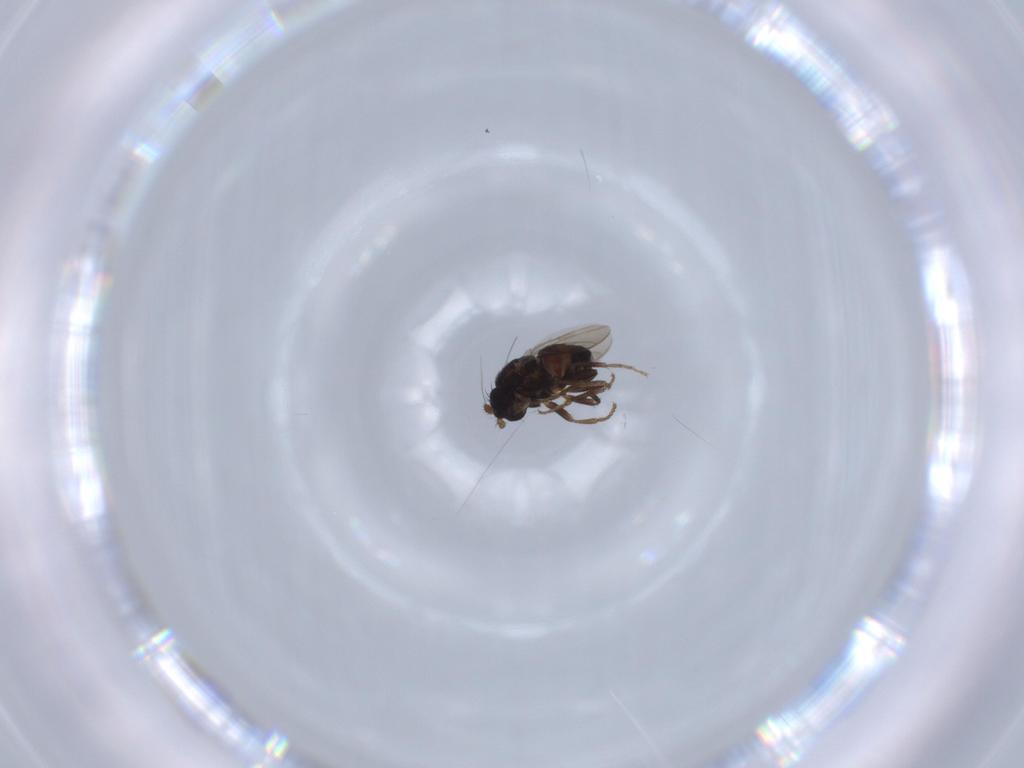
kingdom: Animalia
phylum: Arthropoda
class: Insecta
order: Diptera
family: Sphaeroceridae
